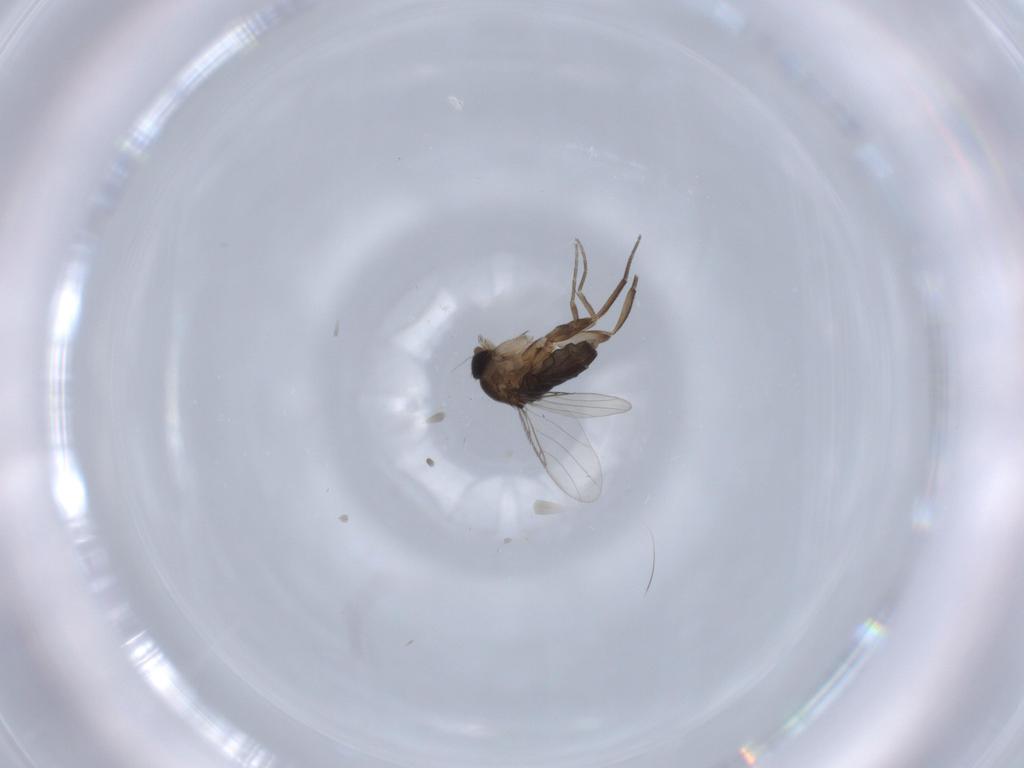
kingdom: Animalia
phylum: Arthropoda
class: Insecta
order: Diptera
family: Phoridae
